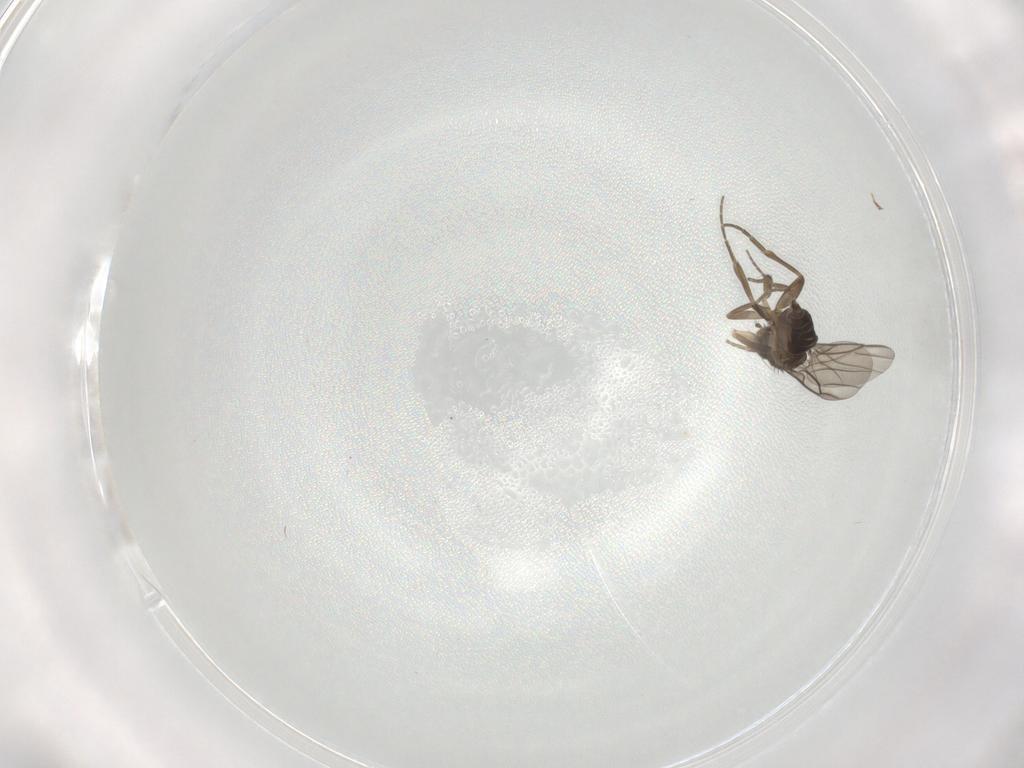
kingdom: Animalia
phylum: Arthropoda
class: Insecta
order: Diptera
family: Phoridae
